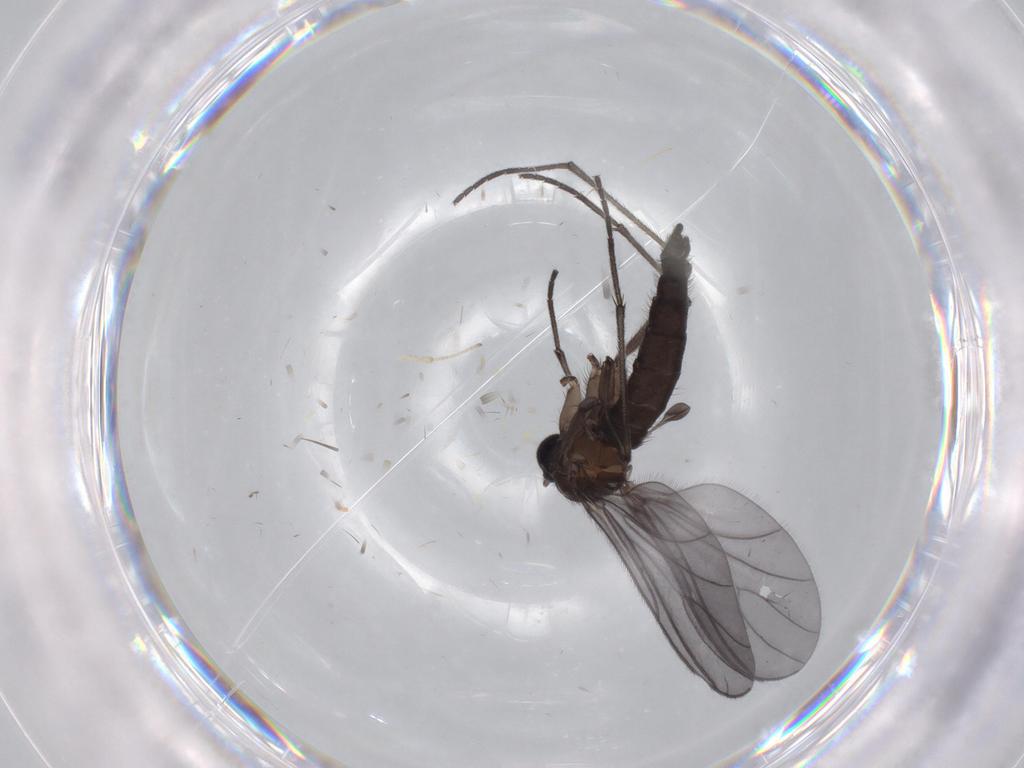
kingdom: Animalia
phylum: Arthropoda
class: Insecta
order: Diptera
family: Sciaridae
